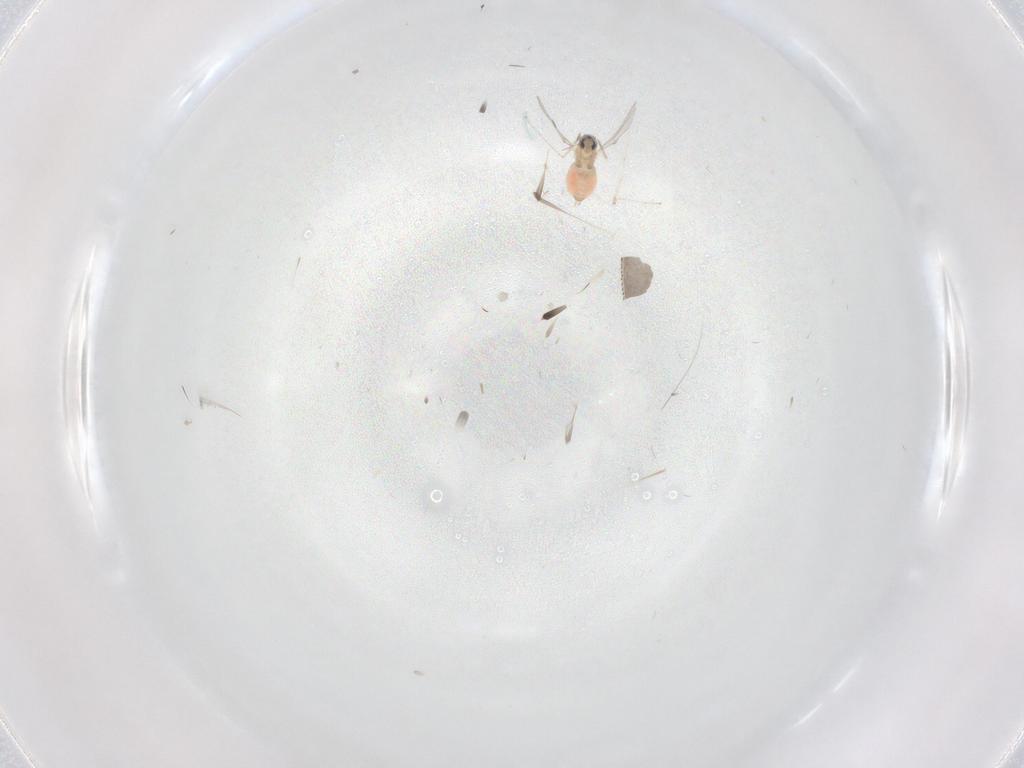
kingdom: Animalia
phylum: Arthropoda
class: Insecta
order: Diptera
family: Cecidomyiidae
